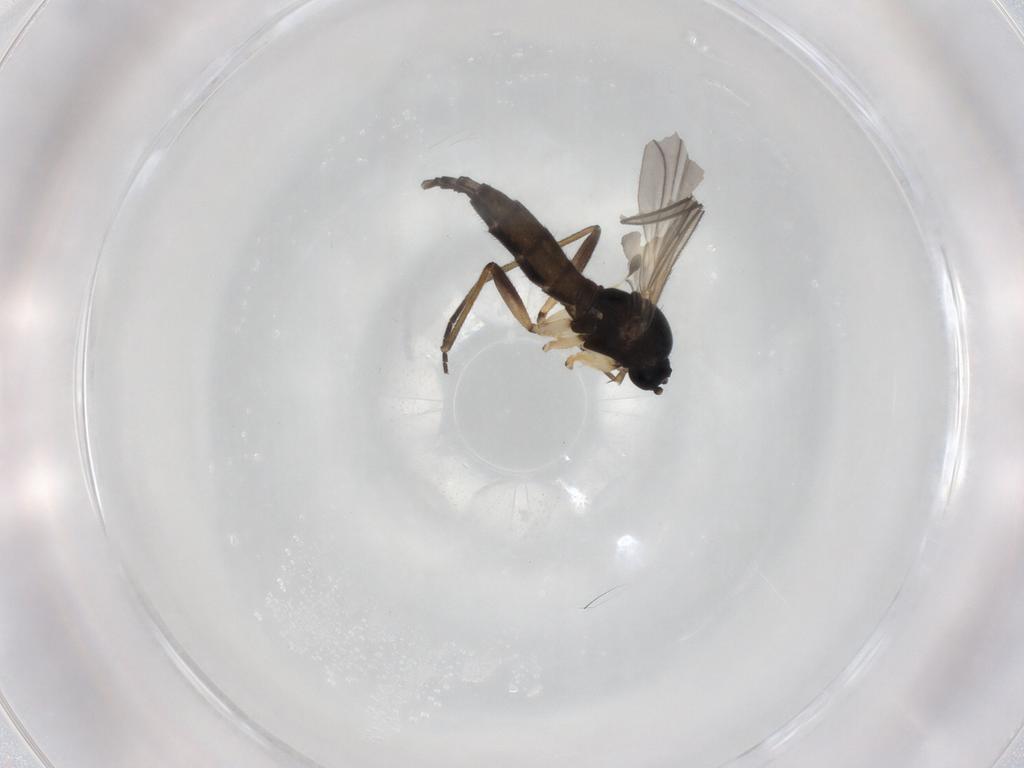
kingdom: Animalia
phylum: Arthropoda
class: Insecta
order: Diptera
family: Sciaridae
